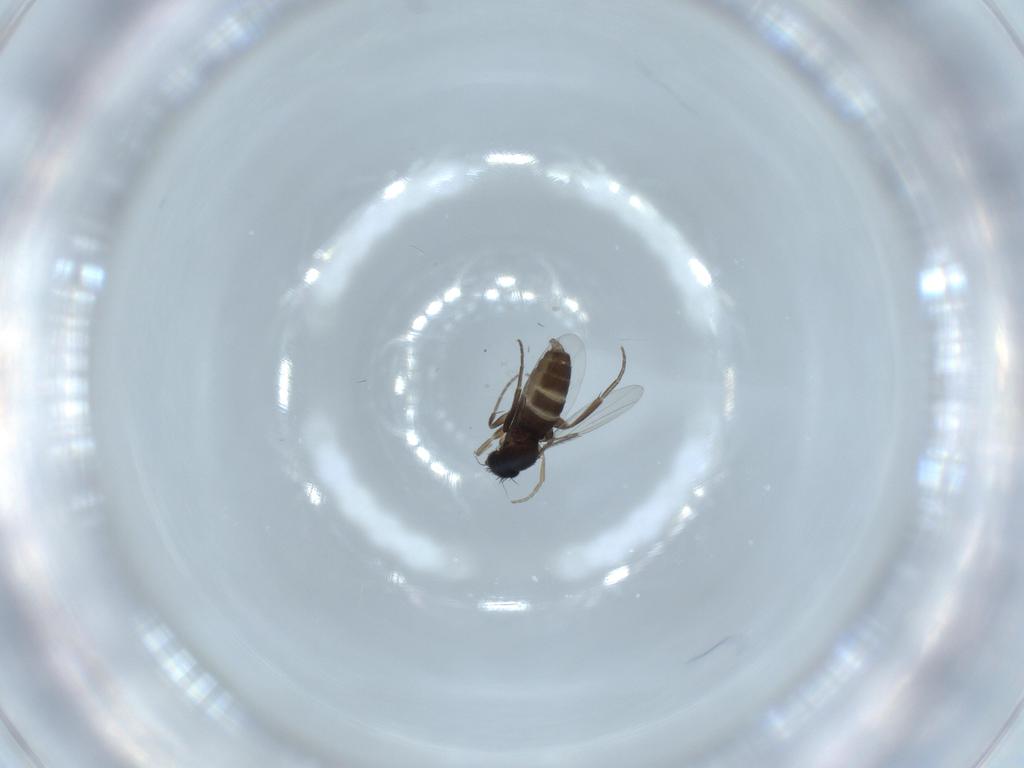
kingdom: Animalia
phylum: Arthropoda
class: Insecta
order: Diptera
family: Phoridae
